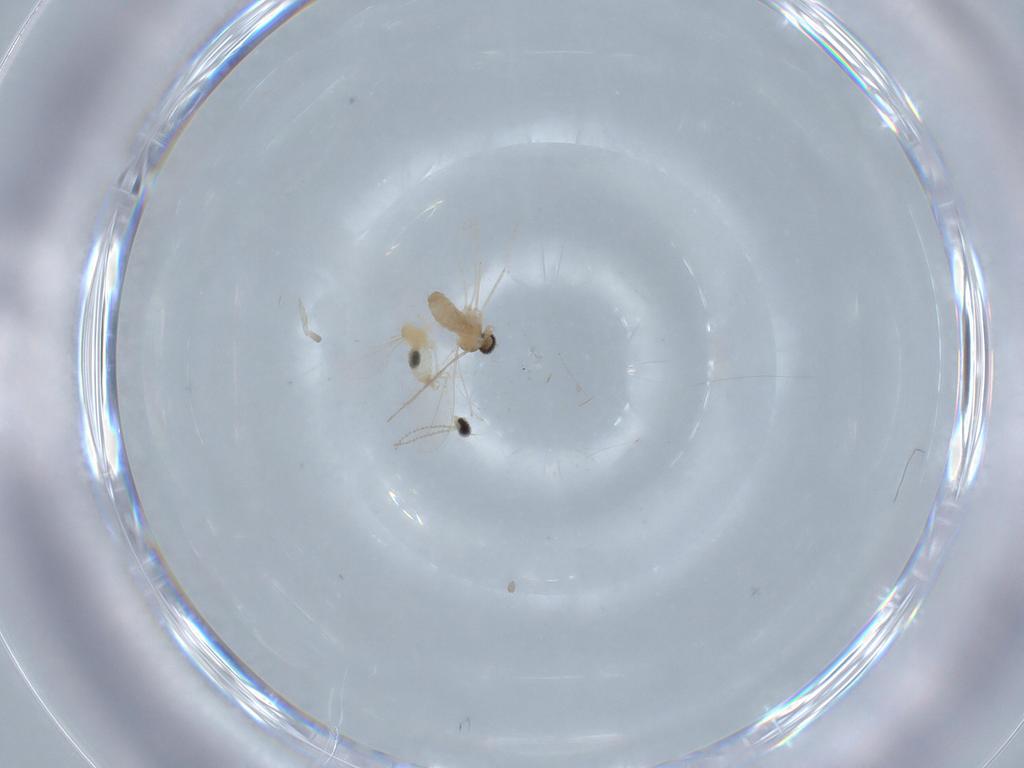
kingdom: Animalia
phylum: Arthropoda
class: Insecta
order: Diptera
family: Cecidomyiidae
